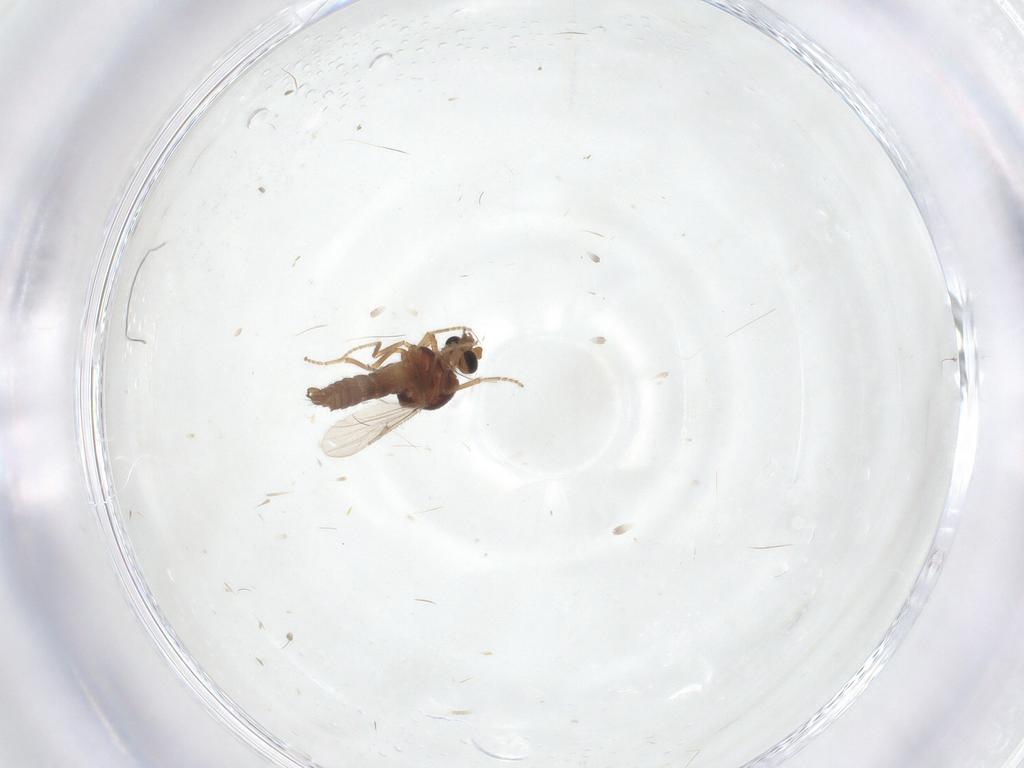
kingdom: Animalia
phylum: Arthropoda
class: Insecta
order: Diptera
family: Ceratopogonidae
